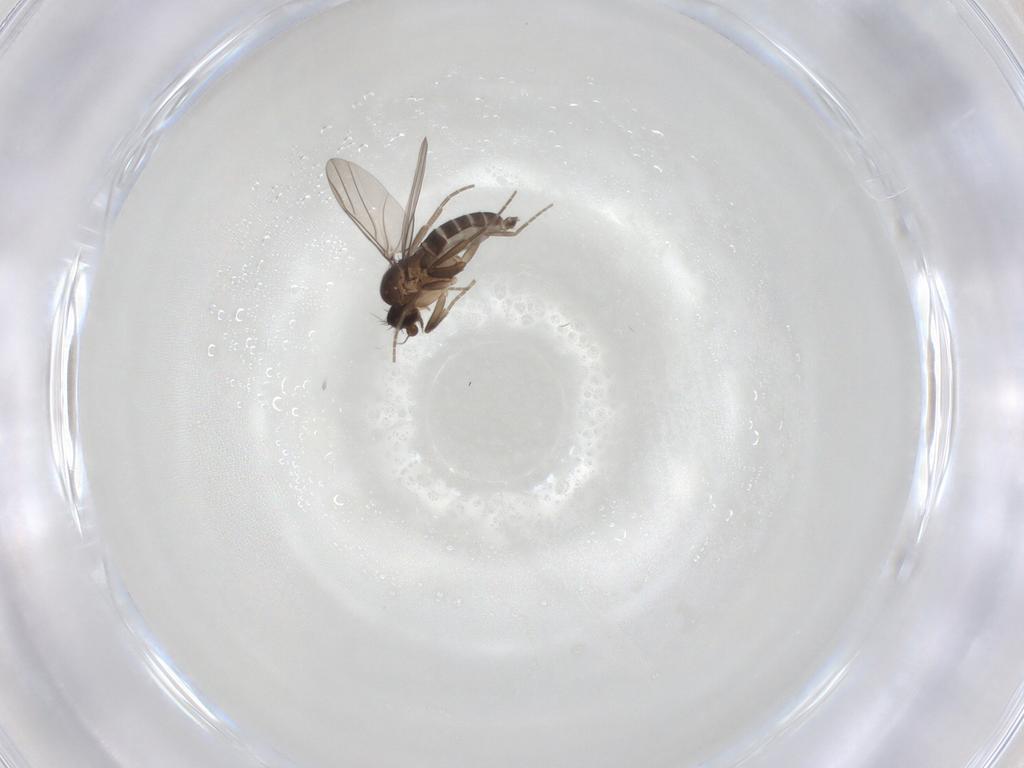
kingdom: Animalia
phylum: Arthropoda
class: Insecta
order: Diptera
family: Phoridae
